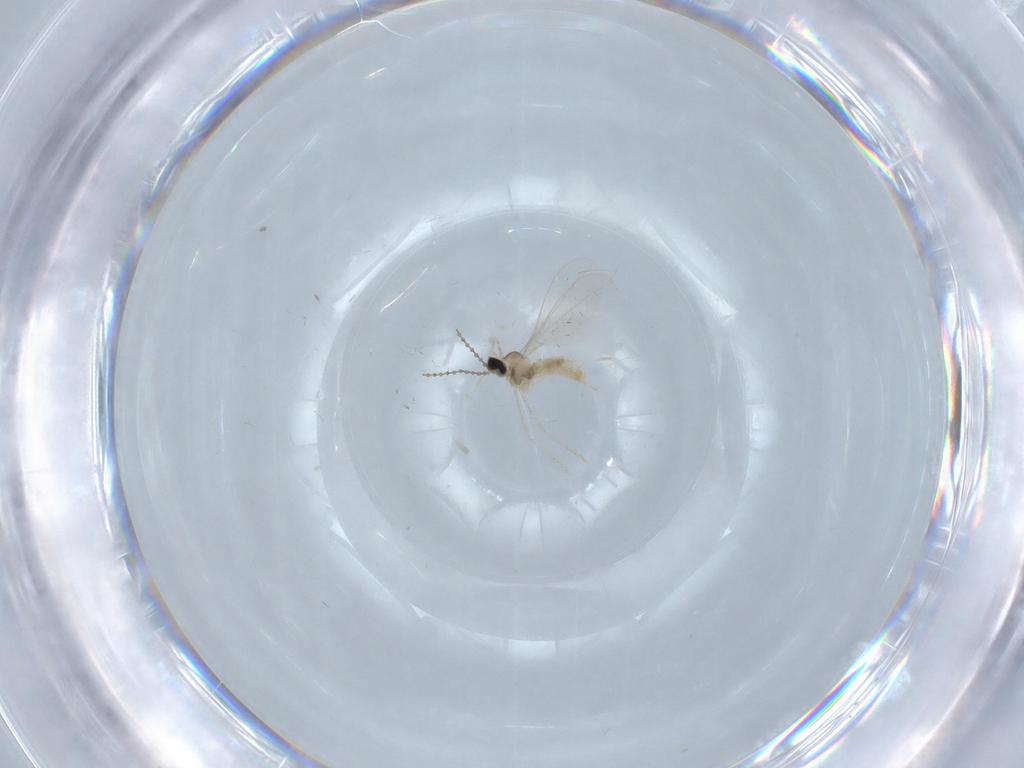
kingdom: Animalia
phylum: Arthropoda
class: Insecta
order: Diptera
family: Cecidomyiidae
